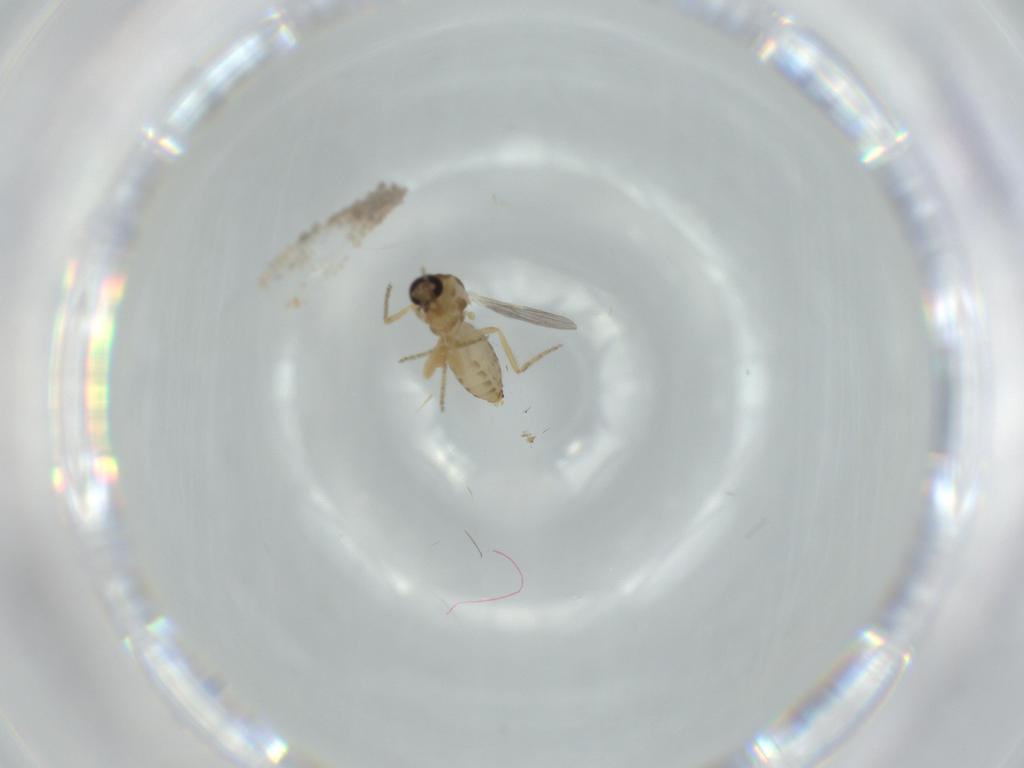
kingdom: Animalia
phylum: Arthropoda
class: Insecta
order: Diptera
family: Ceratopogonidae
